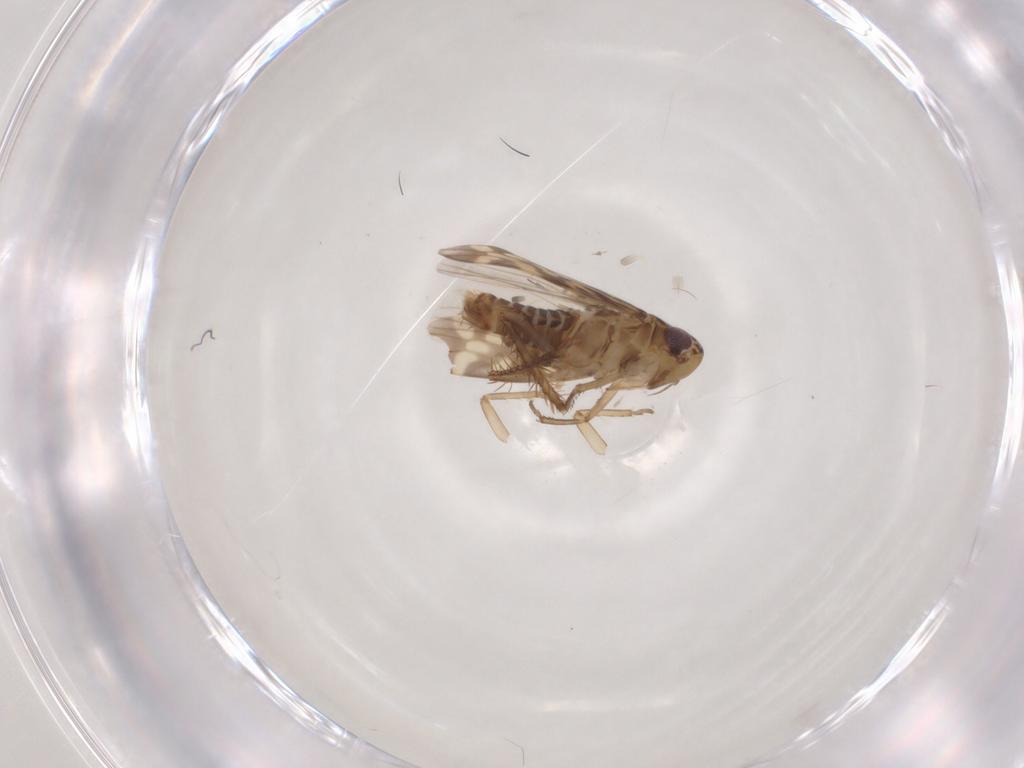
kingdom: Animalia
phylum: Arthropoda
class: Insecta
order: Hemiptera
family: Cicadellidae
